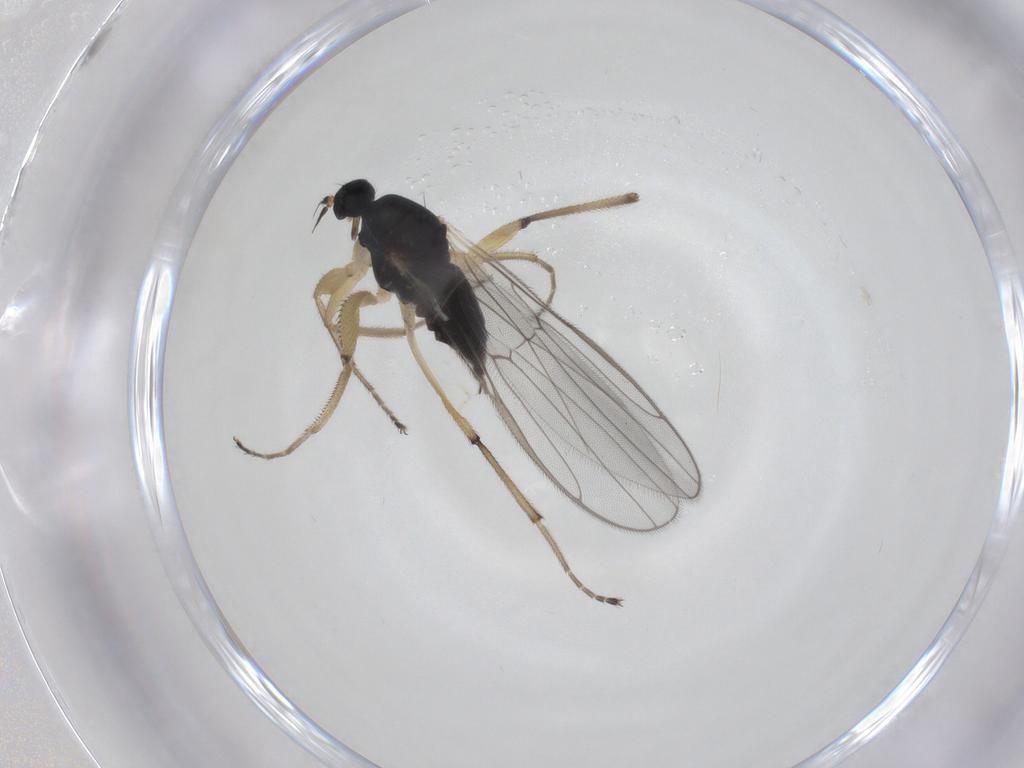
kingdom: Animalia
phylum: Arthropoda
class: Insecta
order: Diptera
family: Hybotidae
